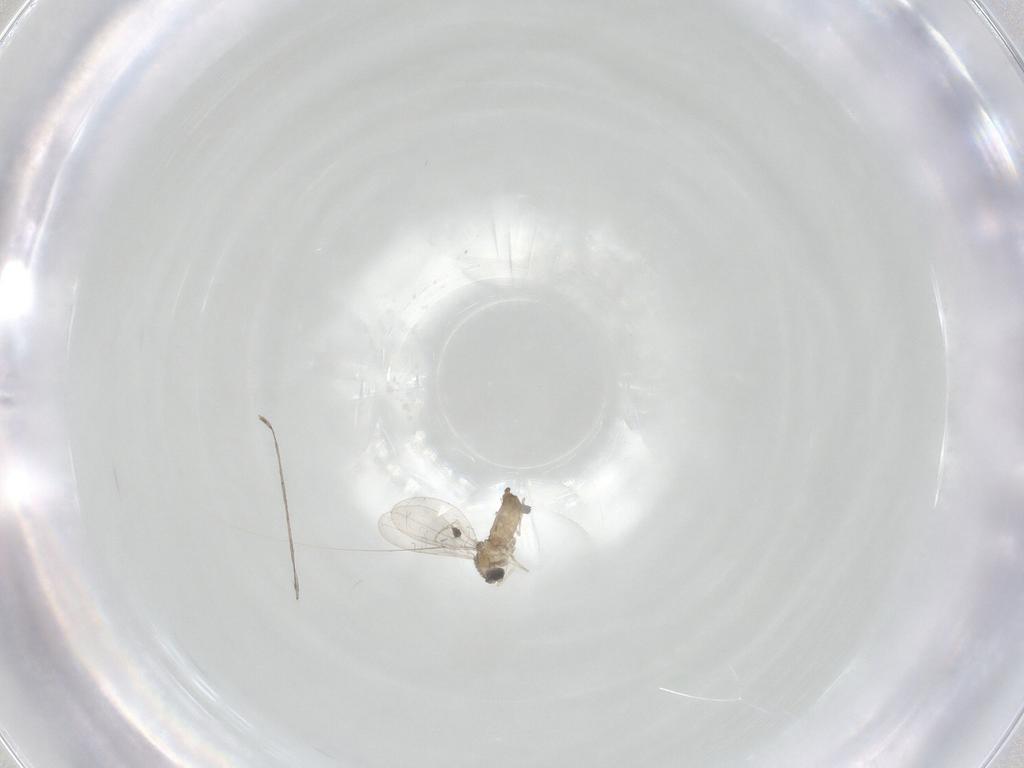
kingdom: Animalia
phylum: Arthropoda
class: Insecta
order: Diptera
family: Cecidomyiidae
